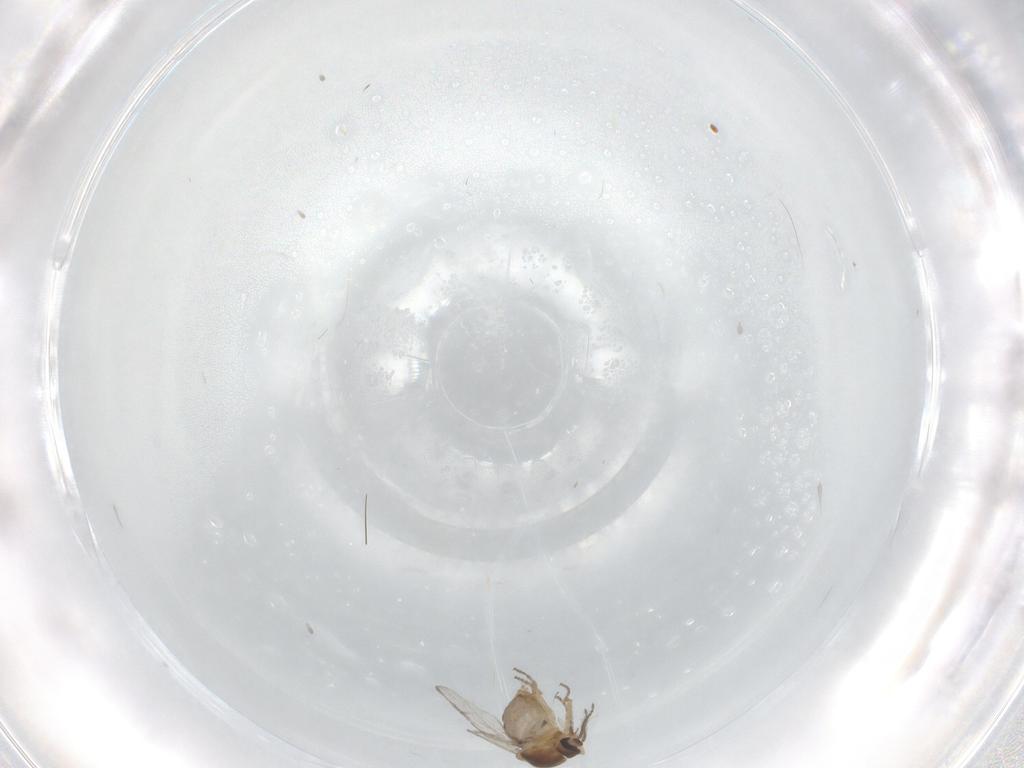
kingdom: Animalia
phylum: Arthropoda
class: Insecta
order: Diptera
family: Ceratopogonidae
